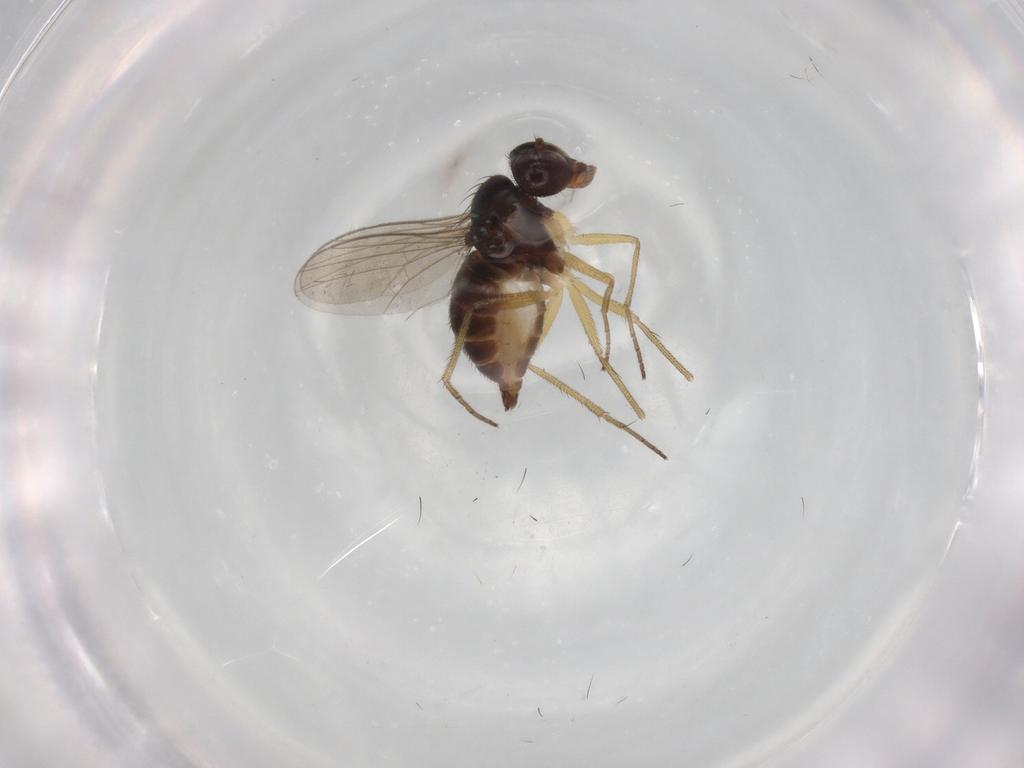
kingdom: Animalia
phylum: Arthropoda
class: Insecta
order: Diptera
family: Dolichopodidae
